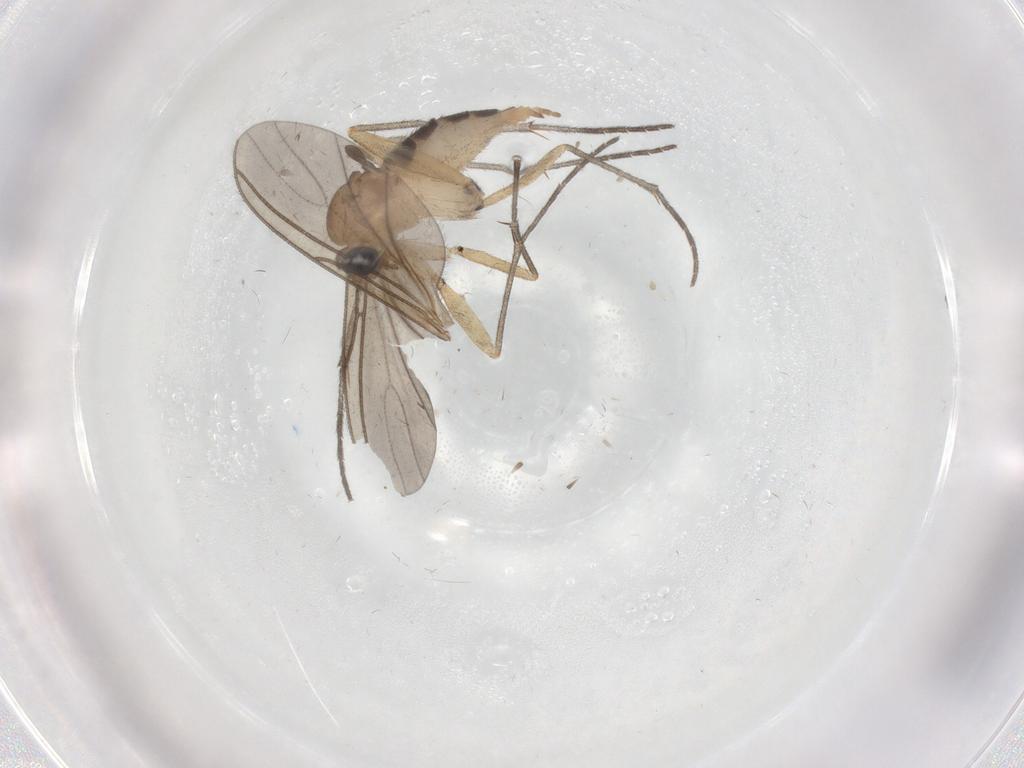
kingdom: Animalia
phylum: Arthropoda
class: Insecta
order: Diptera
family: Sciaridae
